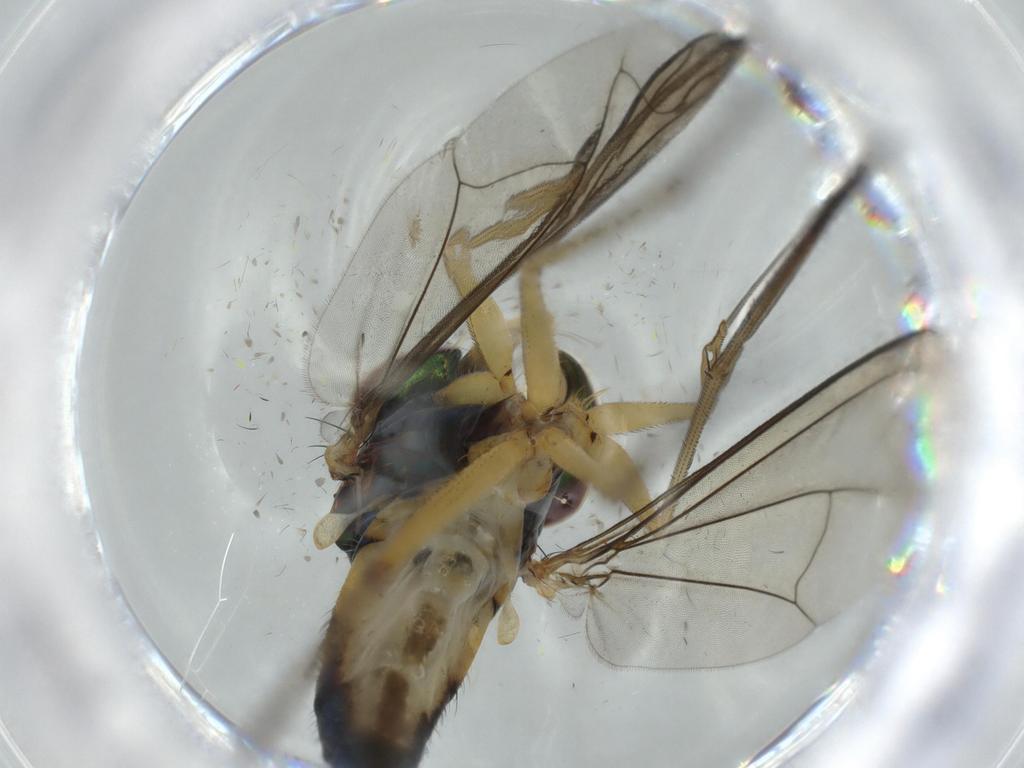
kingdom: Animalia
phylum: Arthropoda
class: Insecta
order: Diptera
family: Dolichopodidae
